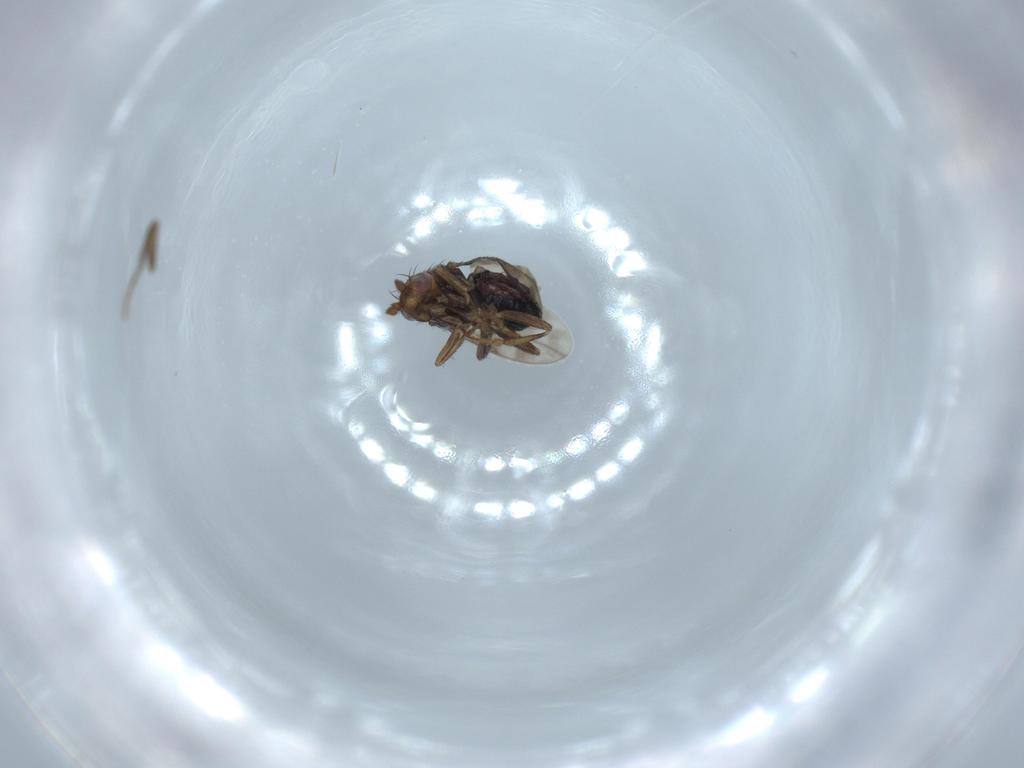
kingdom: Animalia
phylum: Arthropoda
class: Insecta
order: Diptera
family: Sphaeroceridae
